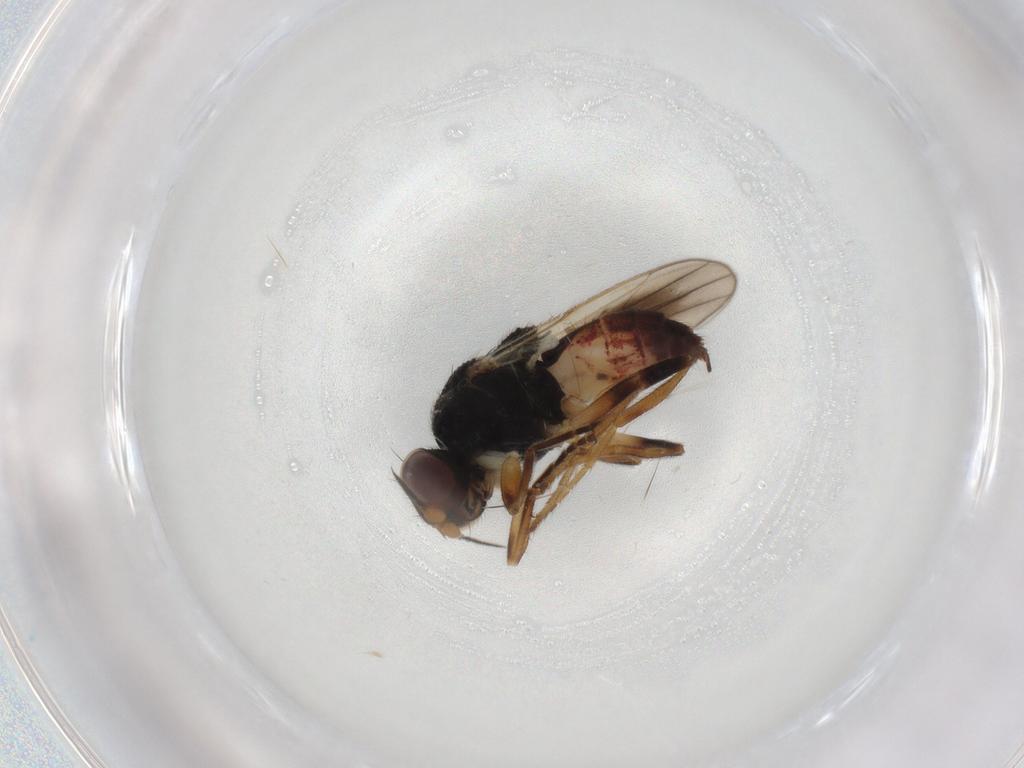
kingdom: Animalia
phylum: Arthropoda
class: Insecta
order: Diptera
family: Chloropidae
